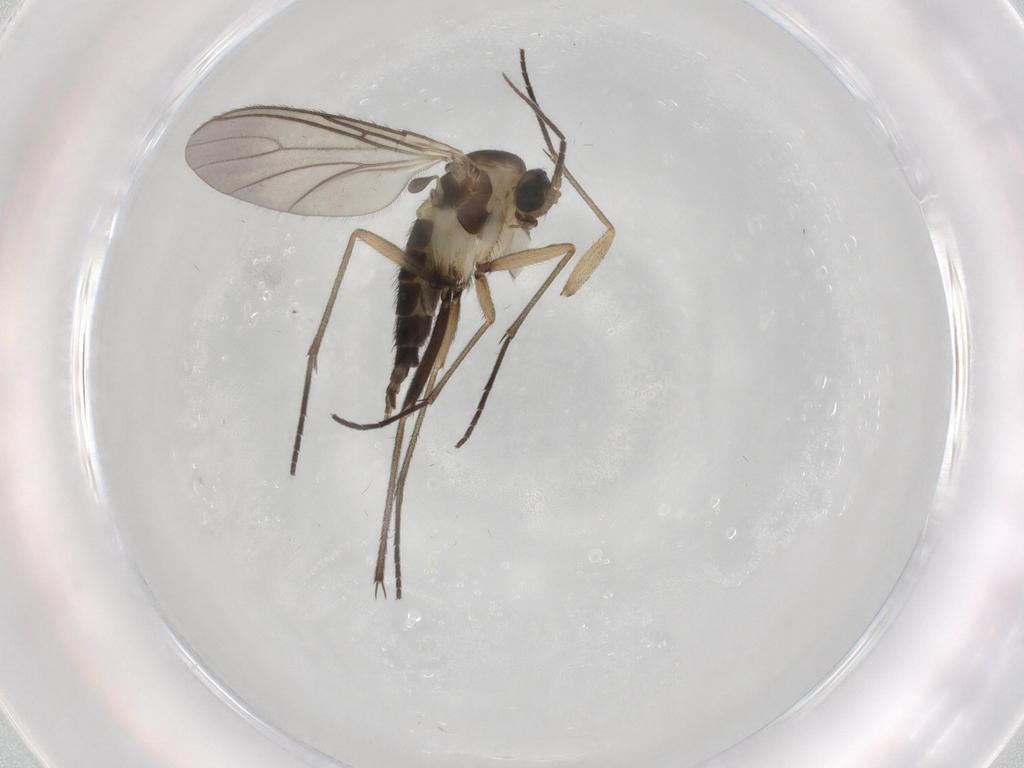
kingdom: Animalia
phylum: Arthropoda
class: Insecta
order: Diptera
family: Sciaridae
